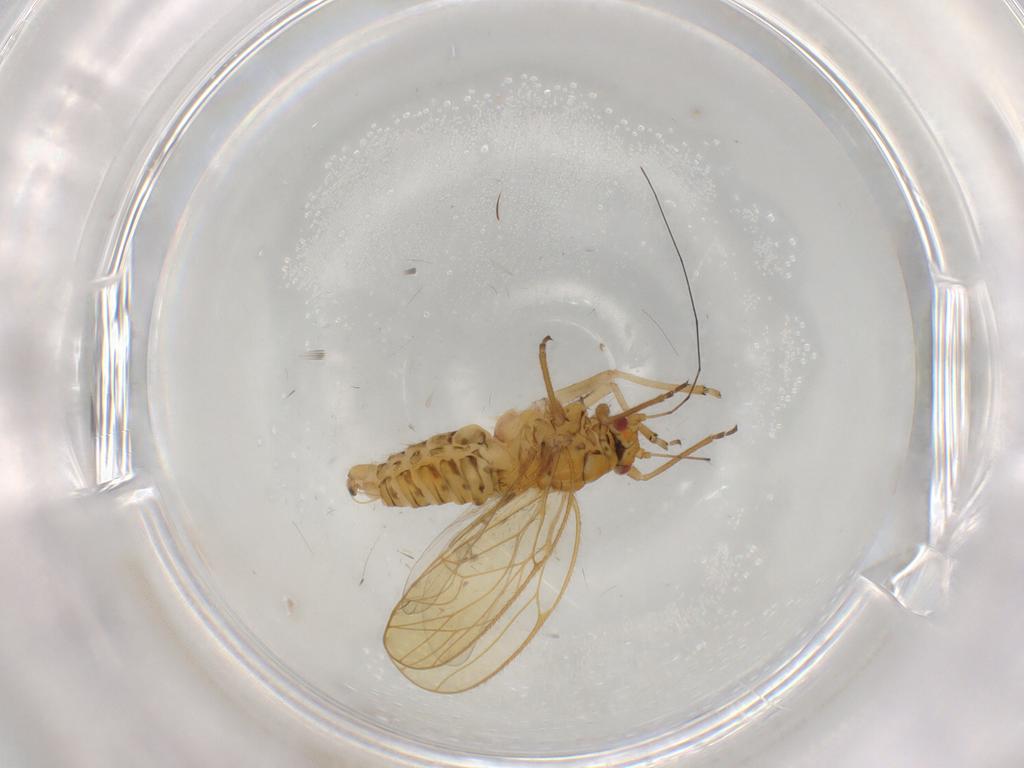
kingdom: Animalia
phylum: Arthropoda
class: Insecta
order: Hemiptera
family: Psyllidae
